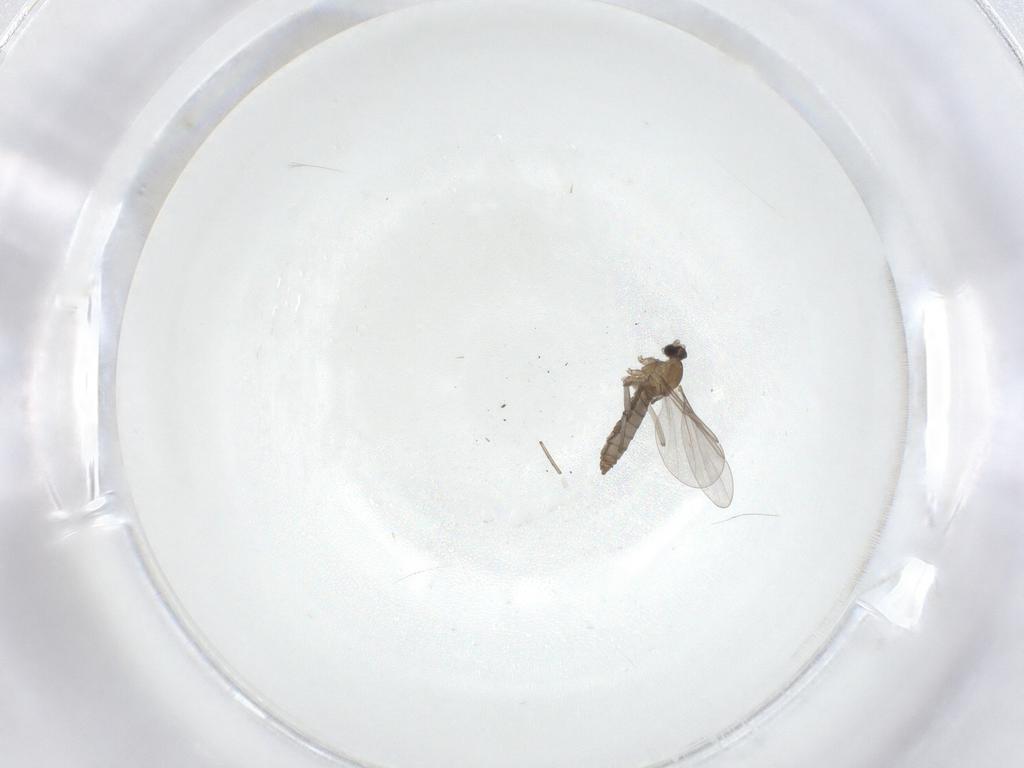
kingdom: Animalia
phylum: Arthropoda
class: Insecta
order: Diptera
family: Cecidomyiidae
